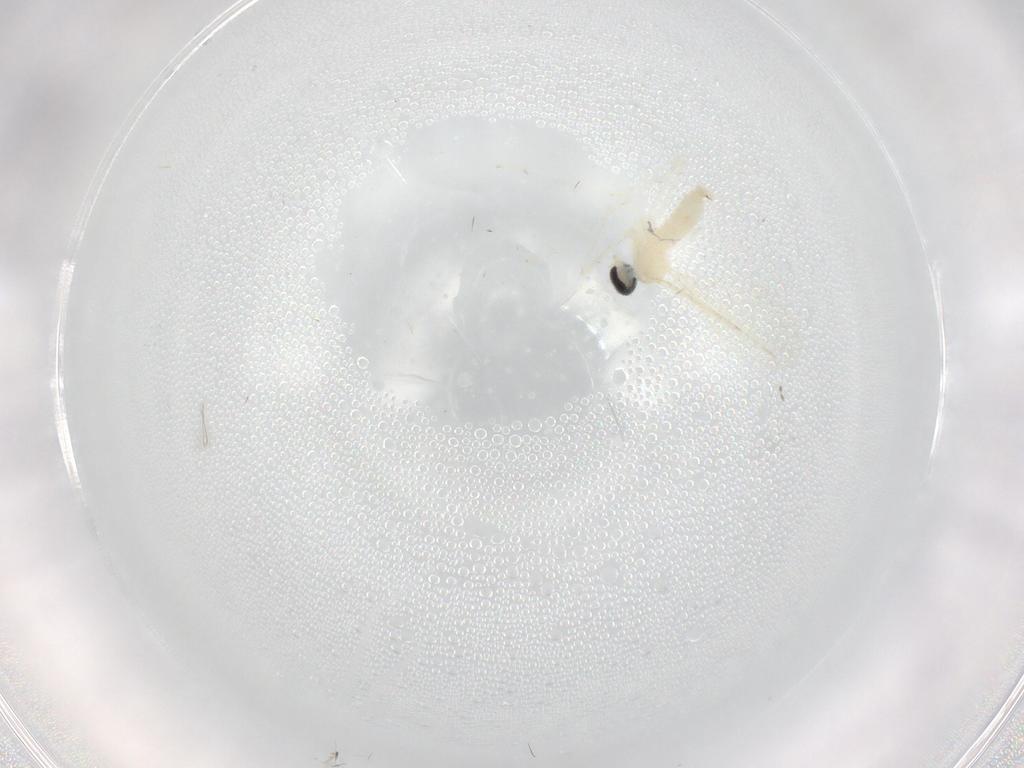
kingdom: Animalia
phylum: Arthropoda
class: Insecta
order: Diptera
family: Cecidomyiidae
